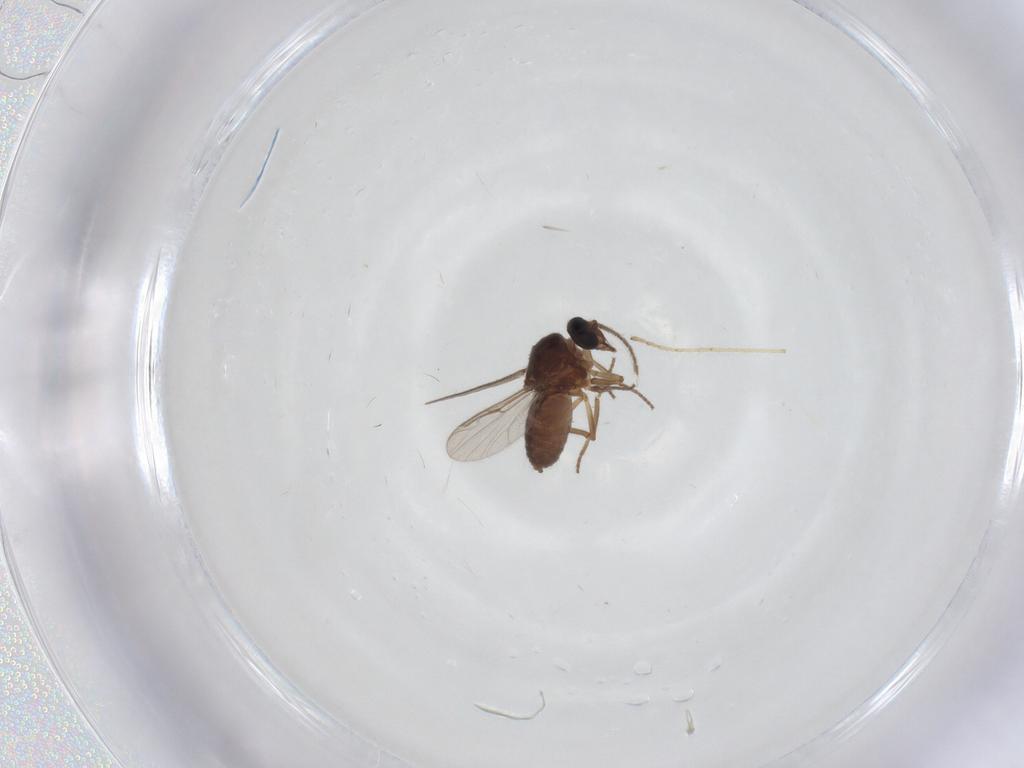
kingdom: Animalia
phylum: Arthropoda
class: Insecta
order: Diptera
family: Ceratopogonidae
